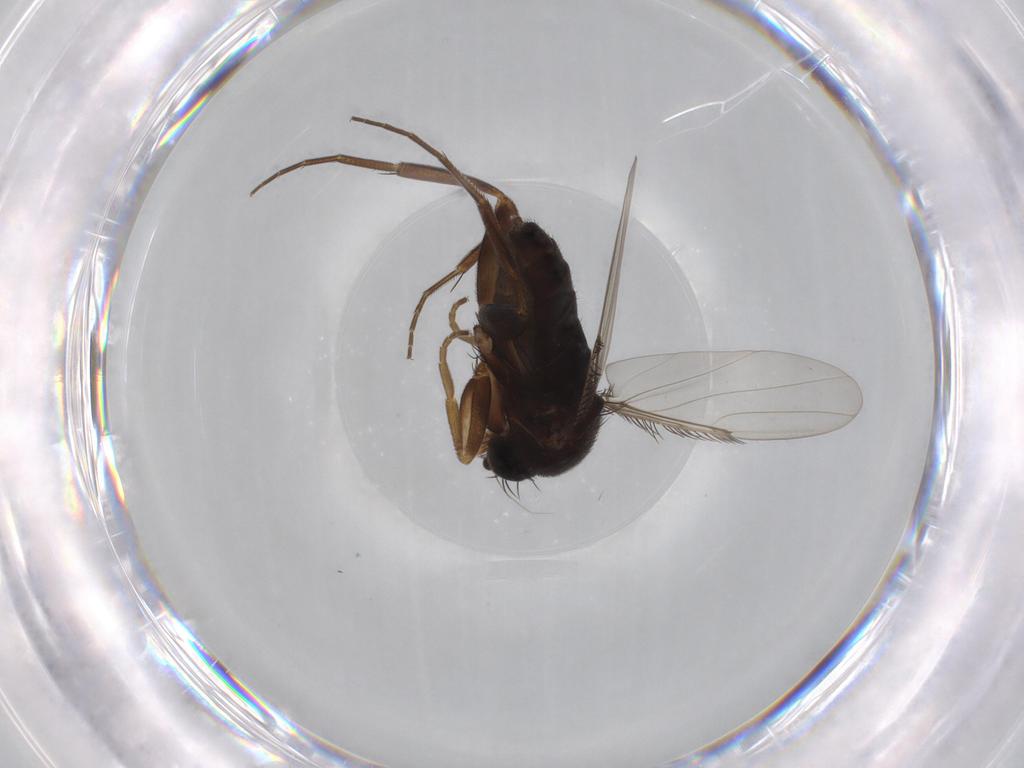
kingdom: Animalia
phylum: Arthropoda
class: Insecta
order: Diptera
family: Phoridae
